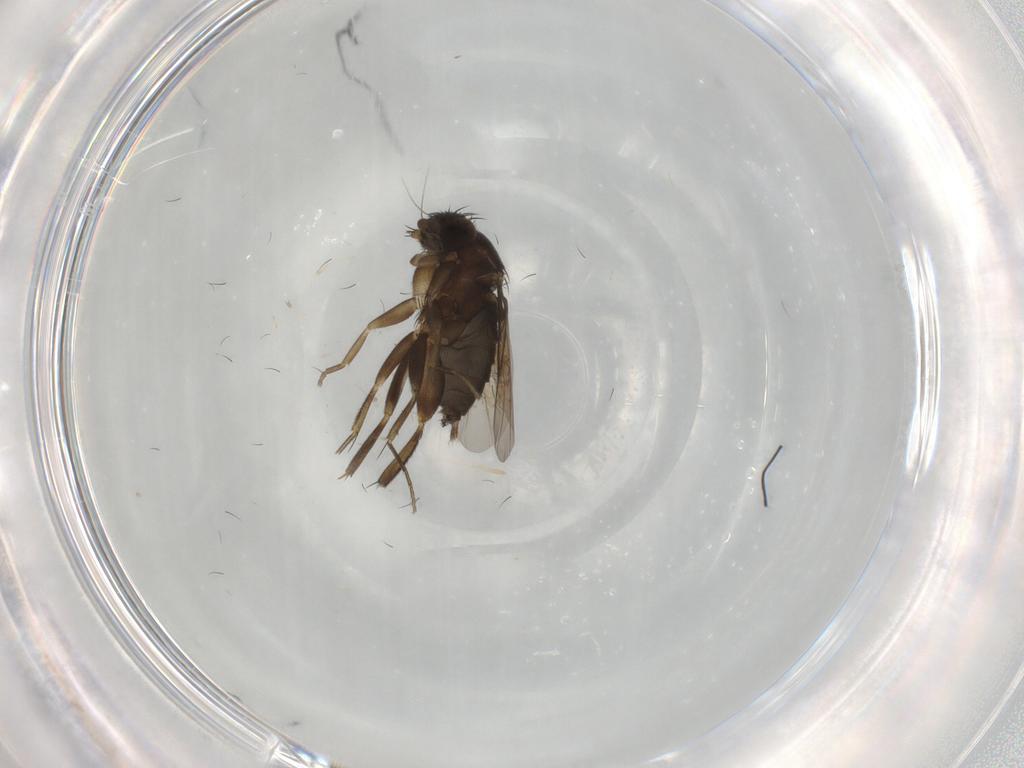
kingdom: Animalia
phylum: Arthropoda
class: Insecta
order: Diptera
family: Phoridae
